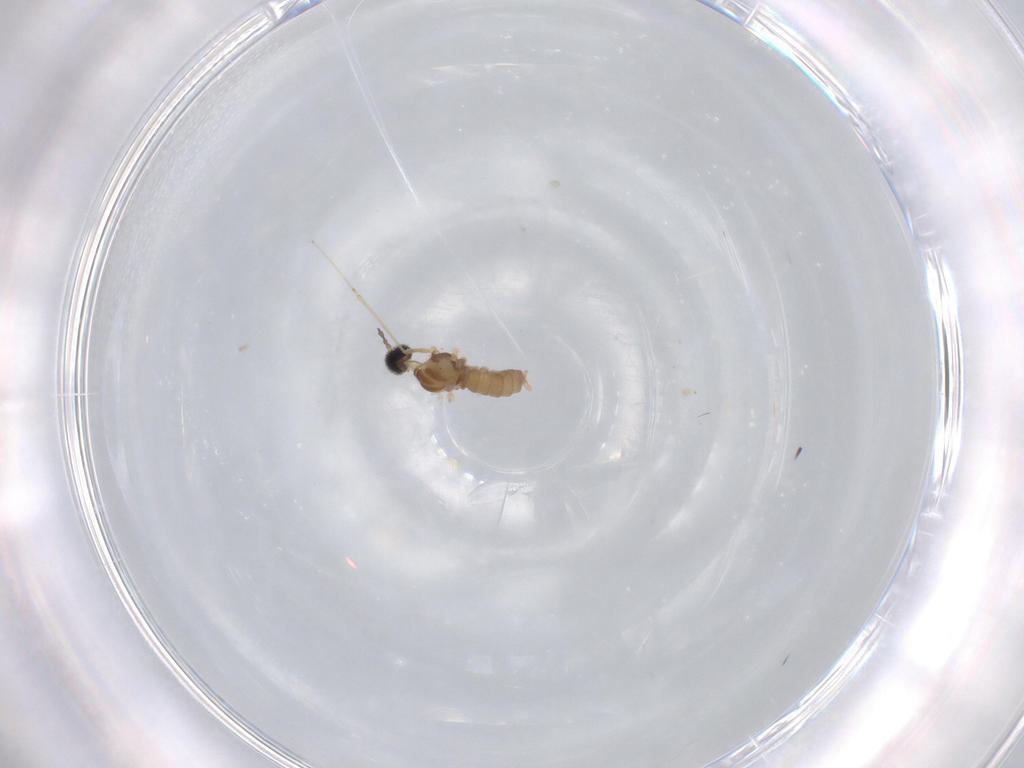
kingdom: Animalia
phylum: Arthropoda
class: Insecta
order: Diptera
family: Cecidomyiidae
